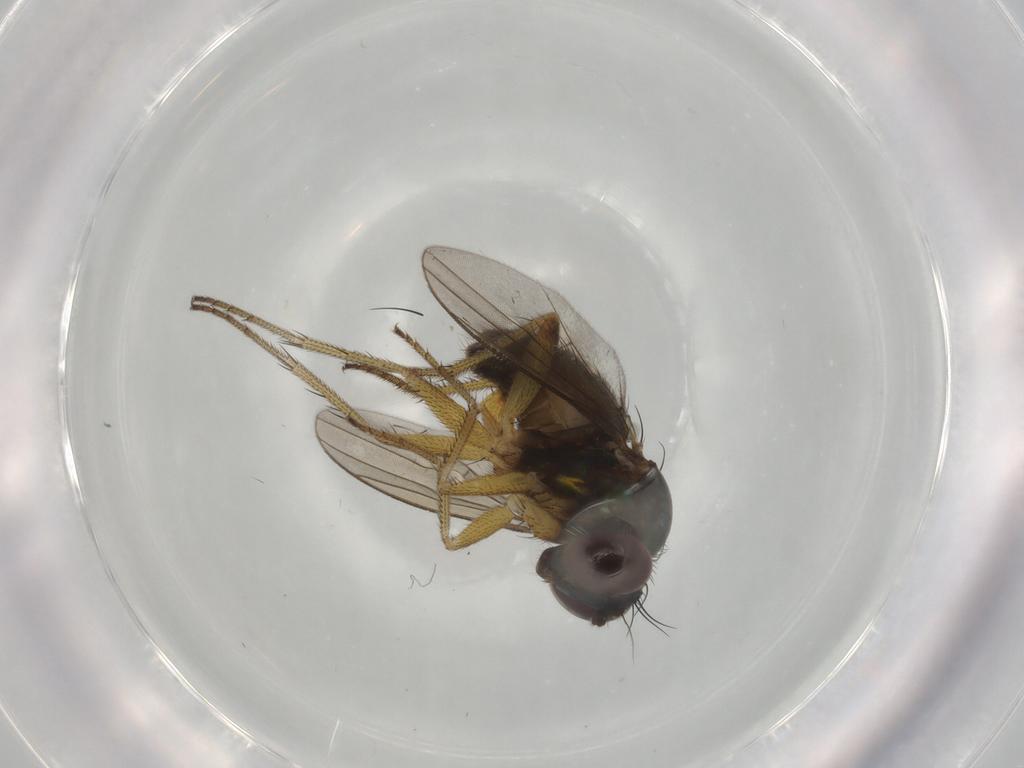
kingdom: Animalia
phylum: Arthropoda
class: Insecta
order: Diptera
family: Dolichopodidae
